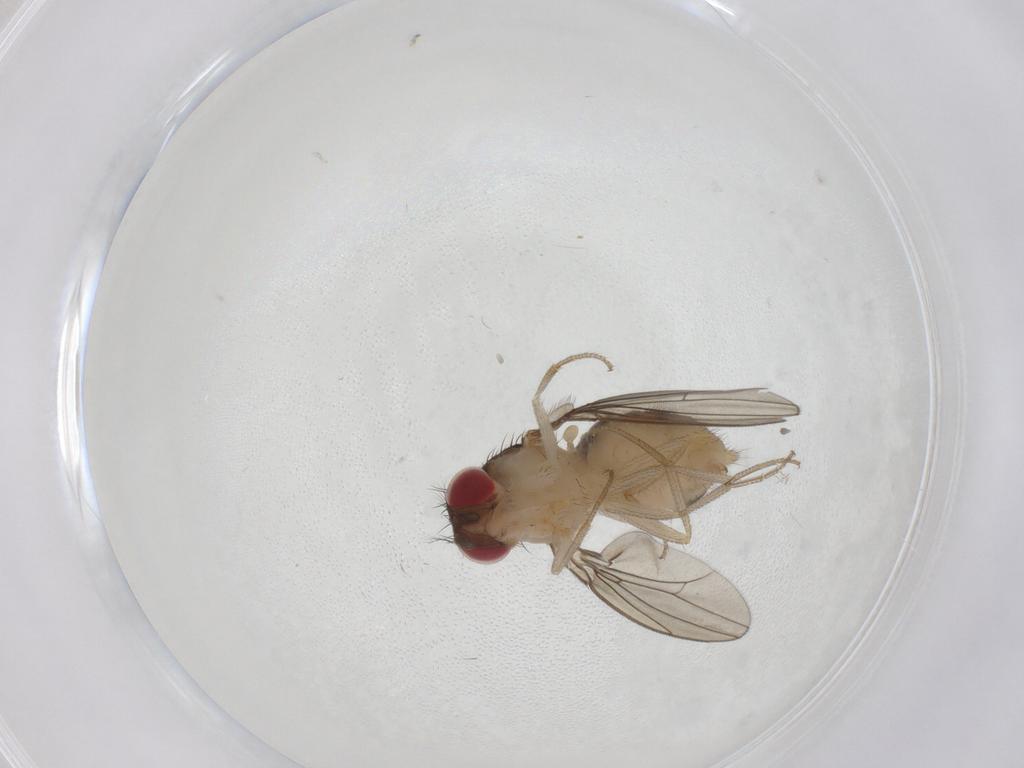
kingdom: Animalia
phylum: Arthropoda
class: Insecta
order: Diptera
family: Drosophilidae
